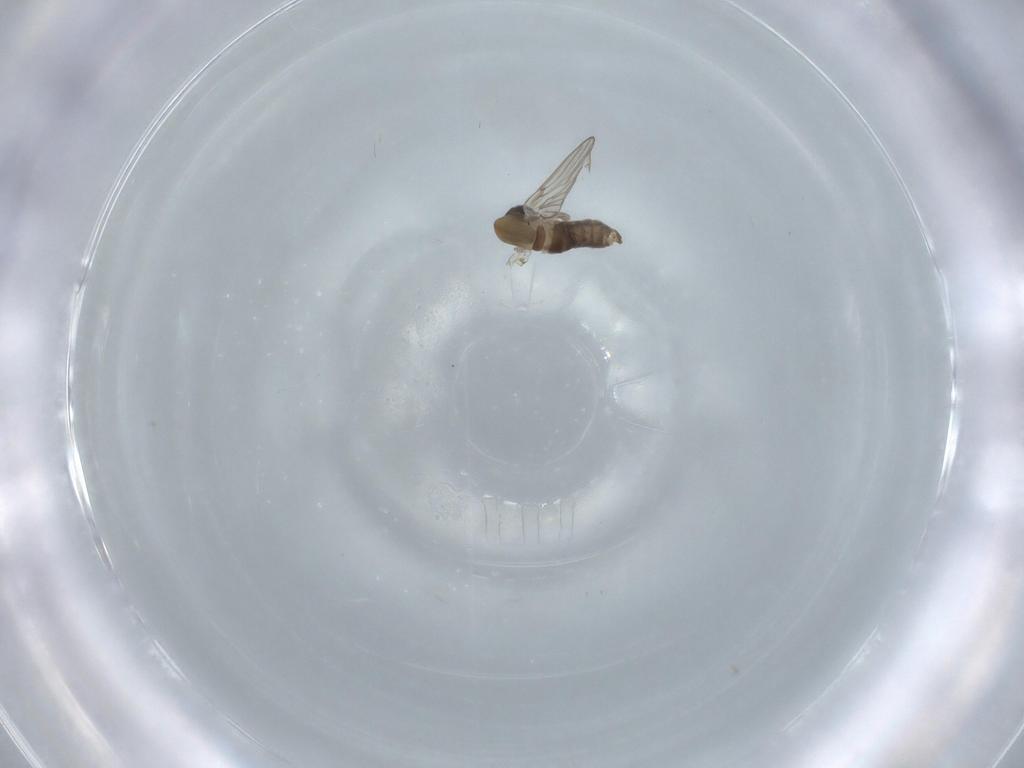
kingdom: Animalia
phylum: Arthropoda
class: Insecta
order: Diptera
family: Psychodidae
